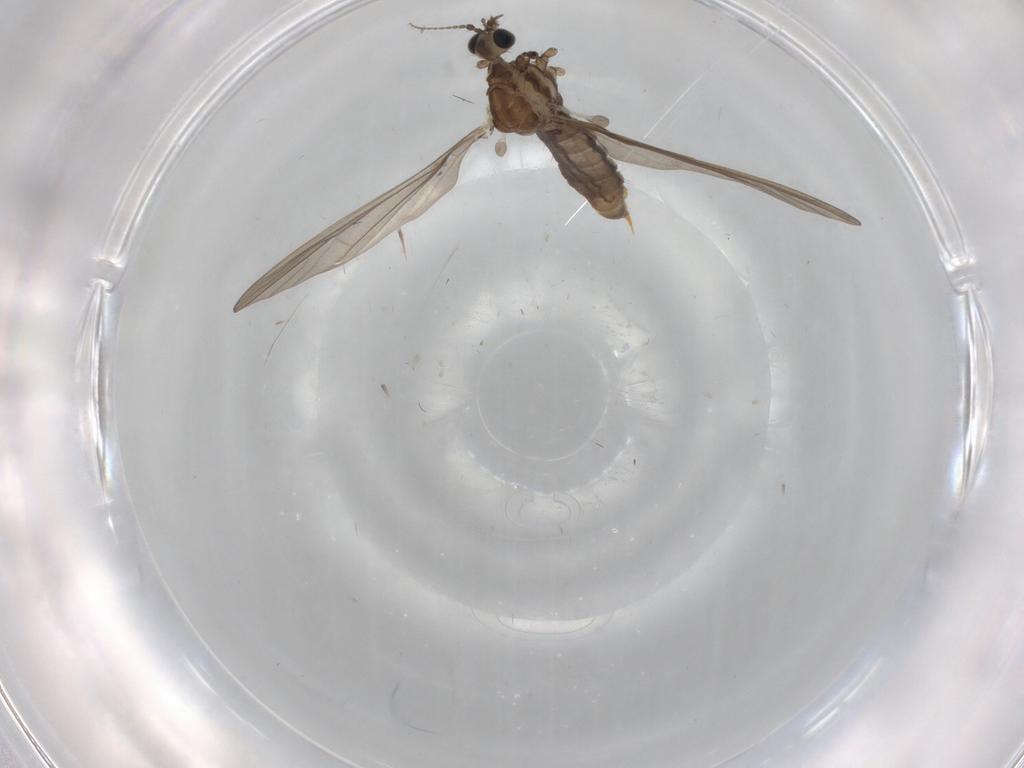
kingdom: Animalia
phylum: Arthropoda
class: Insecta
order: Diptera
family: Limoniidae
